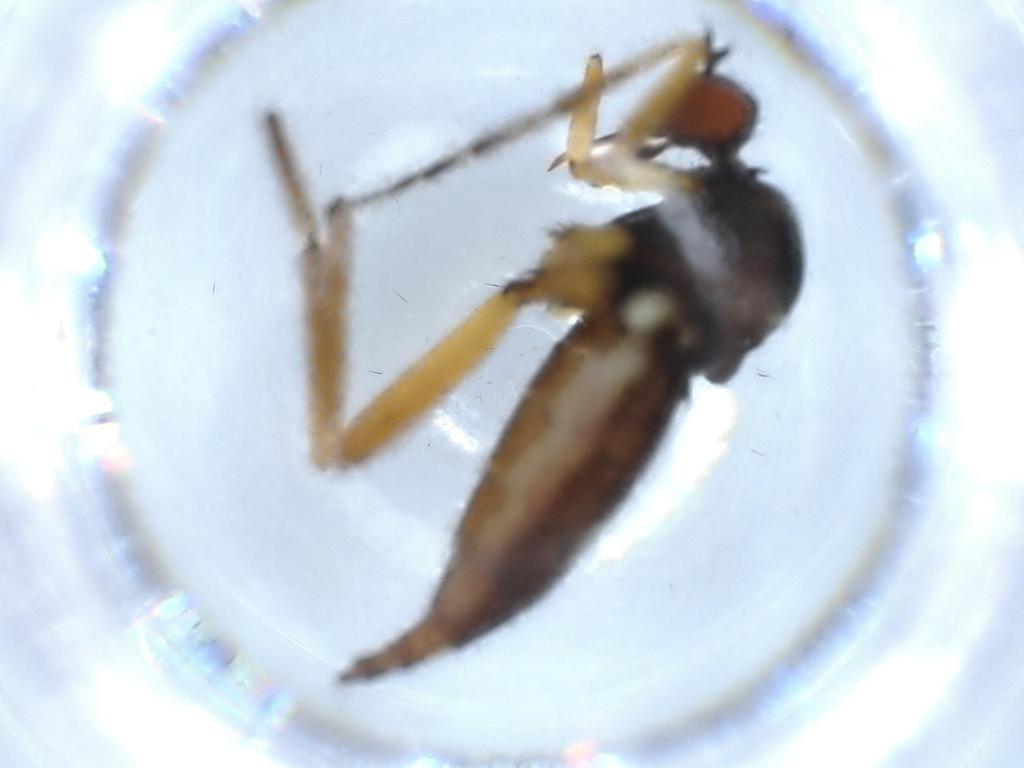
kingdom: Animalia
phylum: Arthropoda
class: Insecta
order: Diptera
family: Empididae
